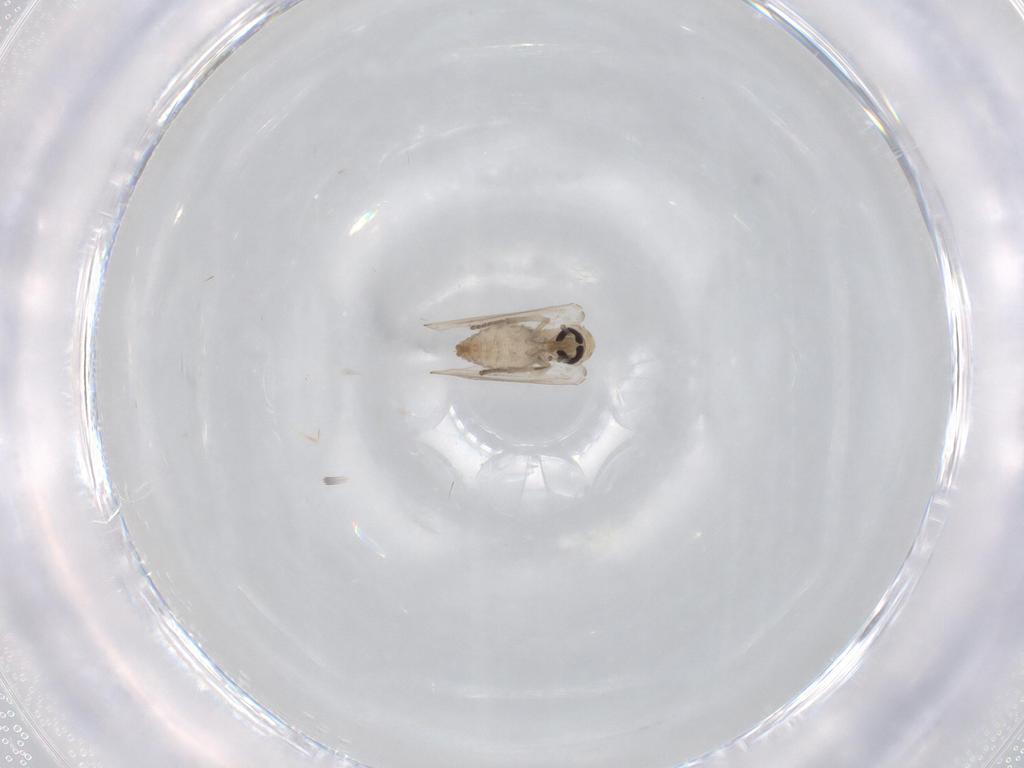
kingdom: Animalia
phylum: Arthropoda
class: Insecta
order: Diptera
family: Psychodidae
